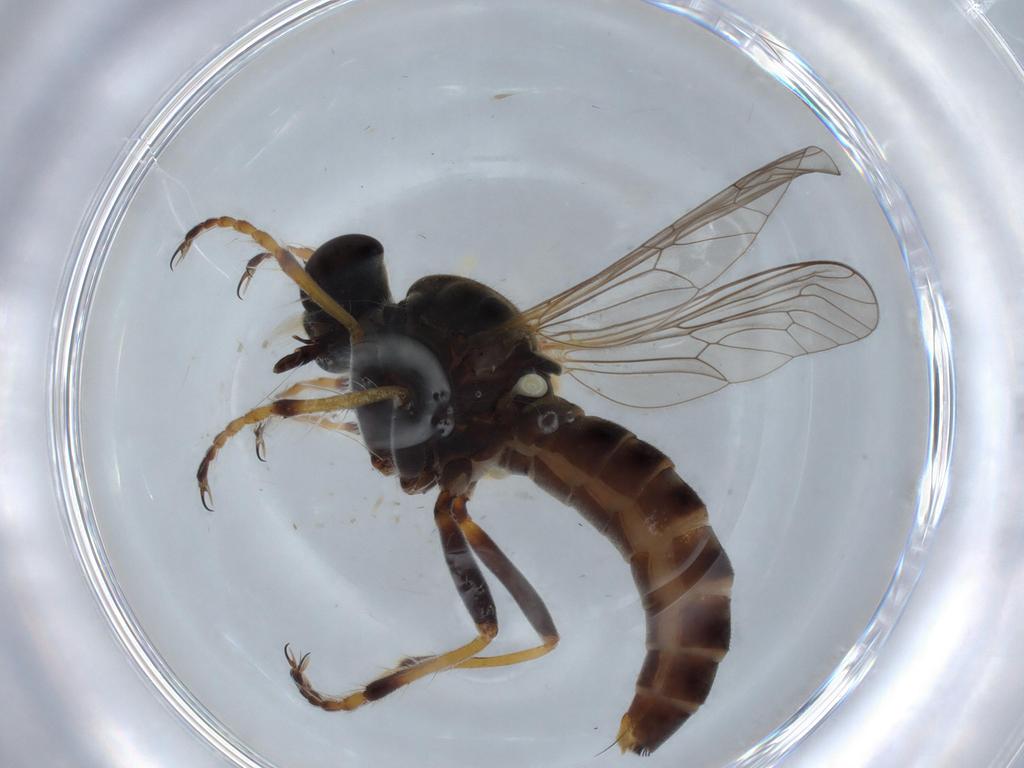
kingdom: Animalia
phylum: Arthropoda
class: Insecta
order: Diptera
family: Asilidae
